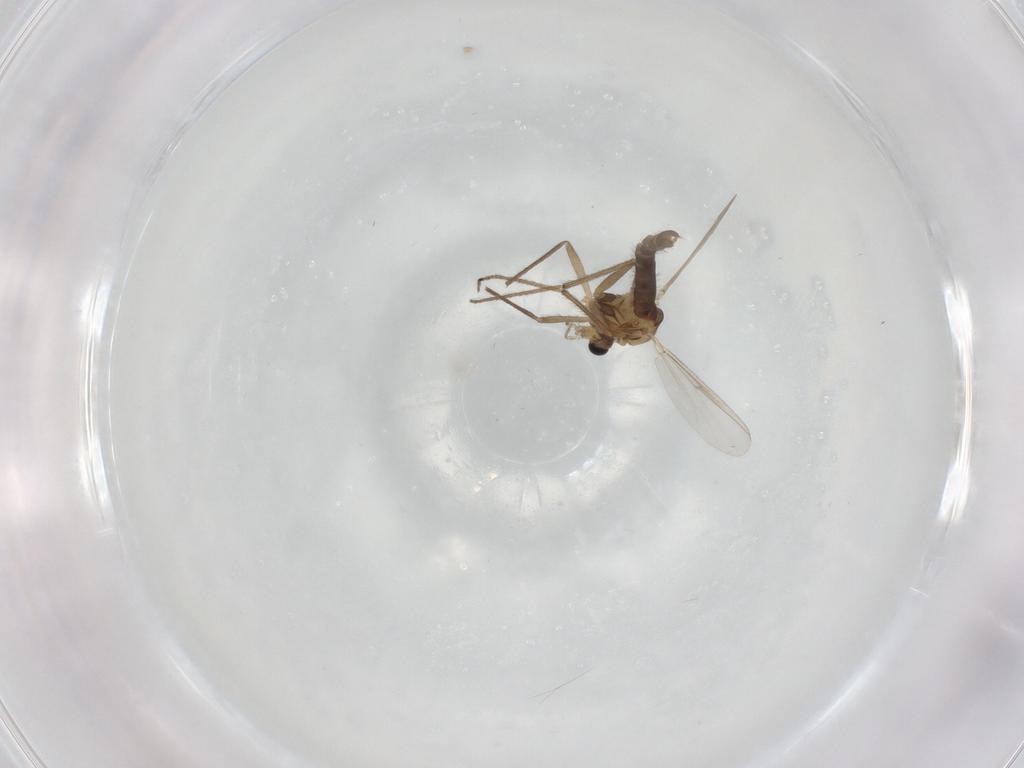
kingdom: Animalia
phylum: Arthropoda
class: Insecta
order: Diptera
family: Chironomidae
